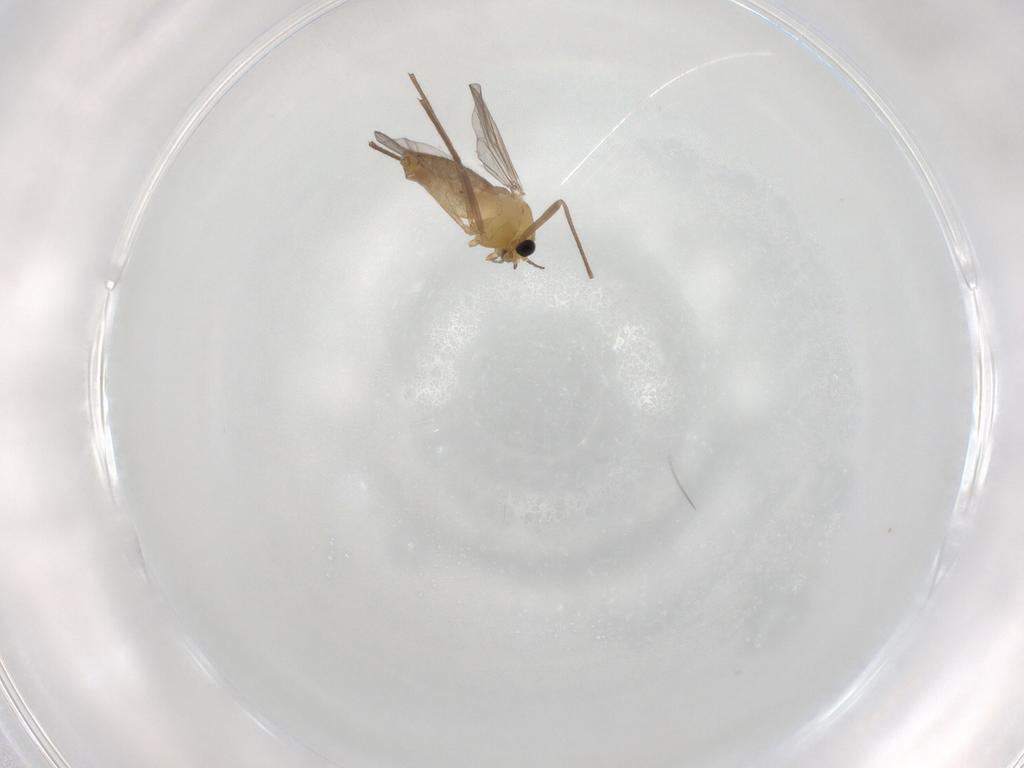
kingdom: Animalia
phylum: Arthropoda
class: Insecta
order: Diptera
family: Chironomidae
